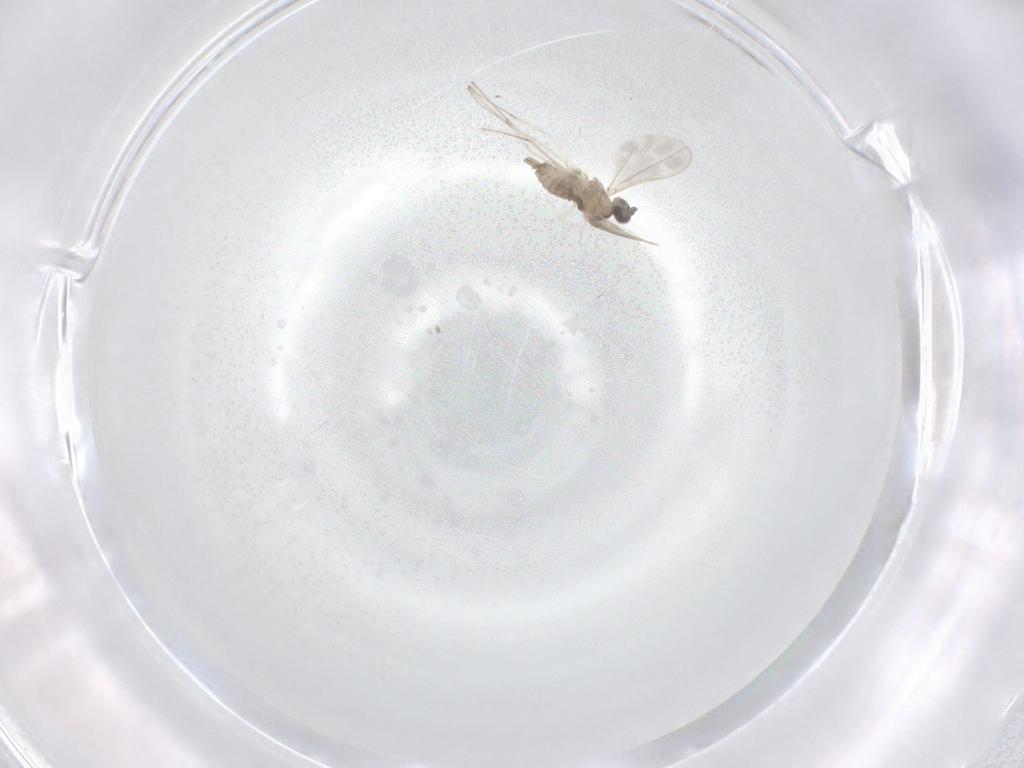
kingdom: Animalia
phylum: Arthropoda
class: Insecta
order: Diptera
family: Cecidomyiidae
